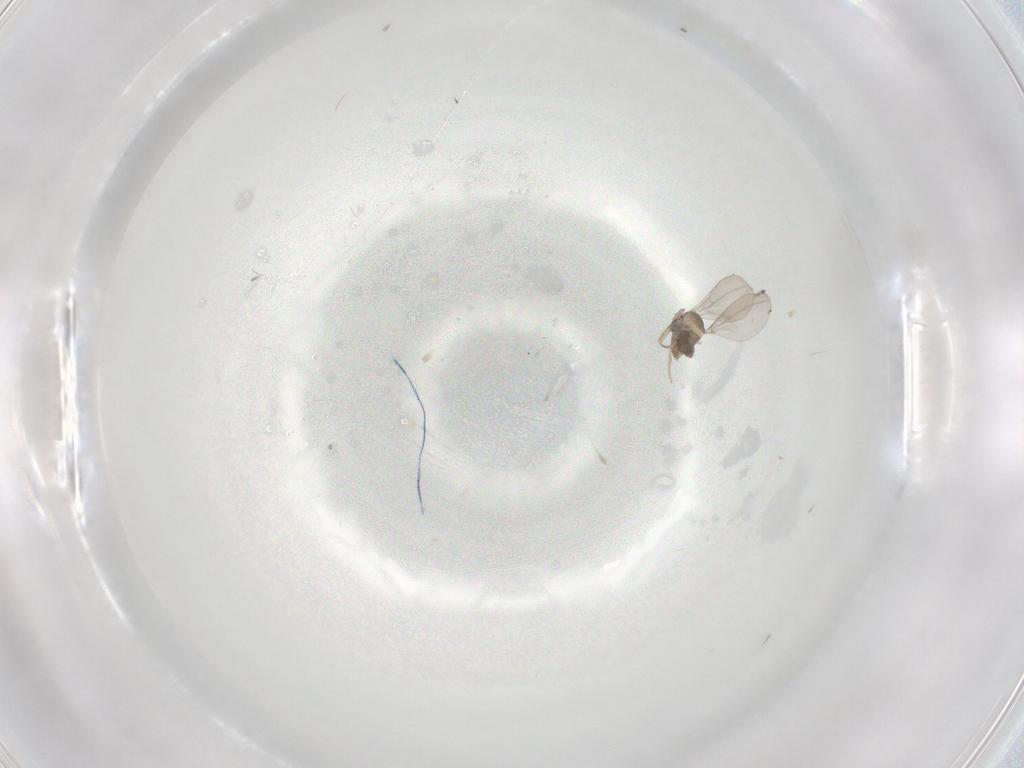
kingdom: Animalia
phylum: Arthropoda
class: Insecta
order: Diptera
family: Cecidomyiidae
